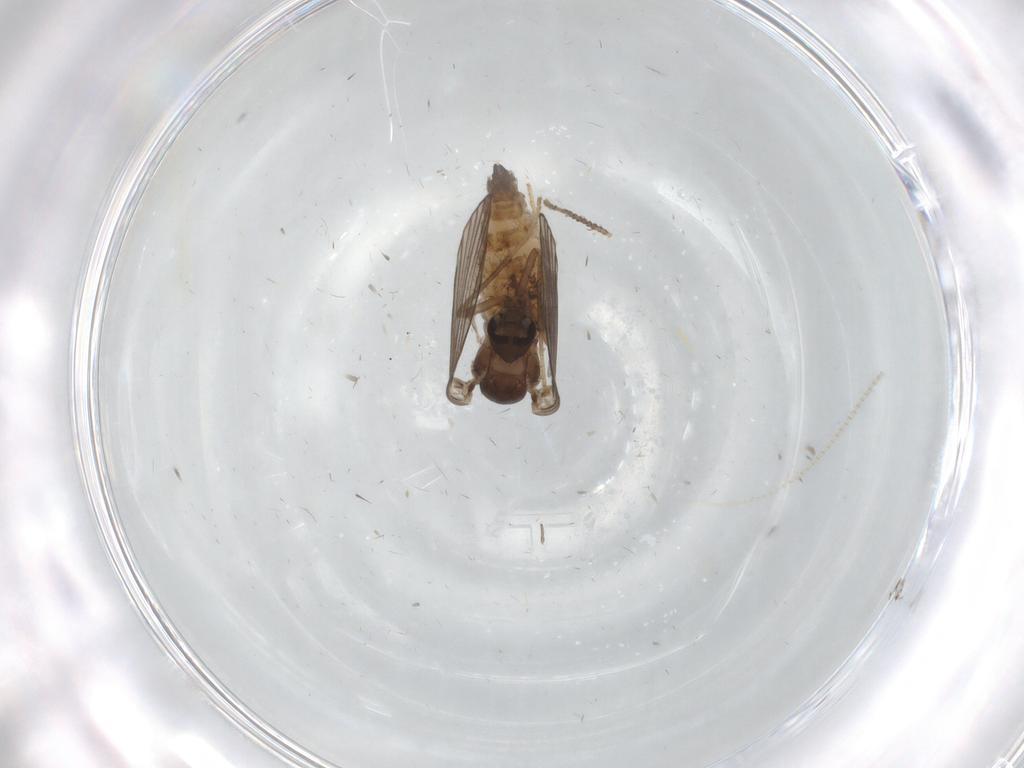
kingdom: Animalia
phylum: Arthropoda
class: Insecta
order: Diptera
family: Psychodidae
